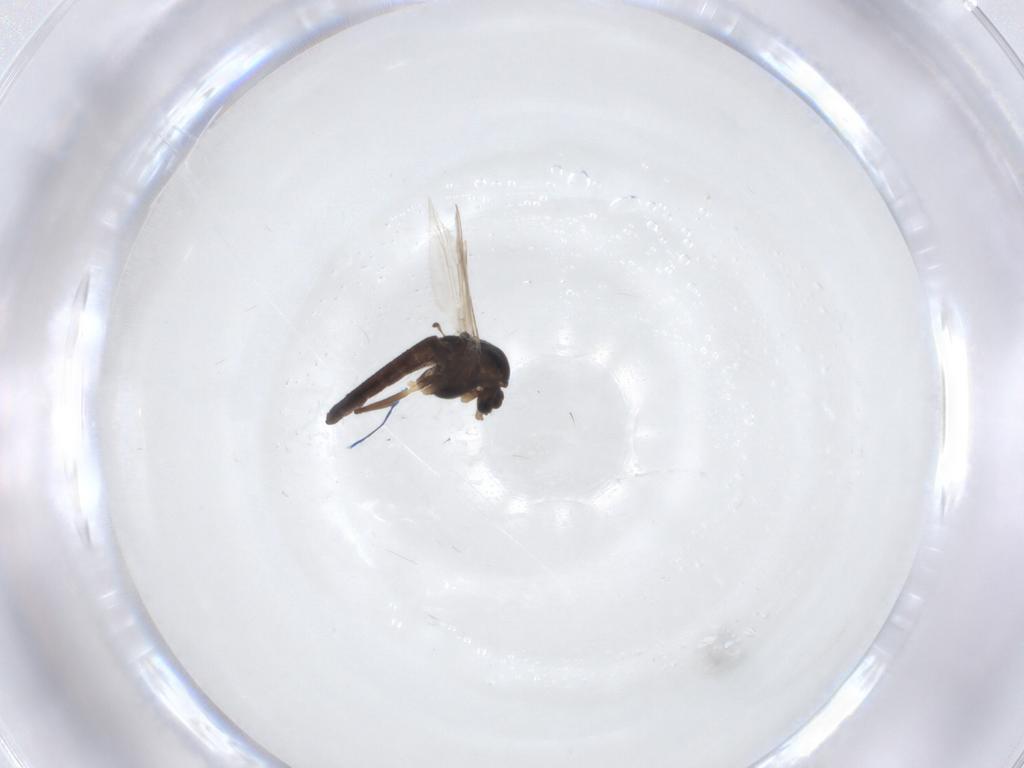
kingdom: Animalia
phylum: Arthropoda
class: Insecta
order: Diptera
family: Chironomidae
